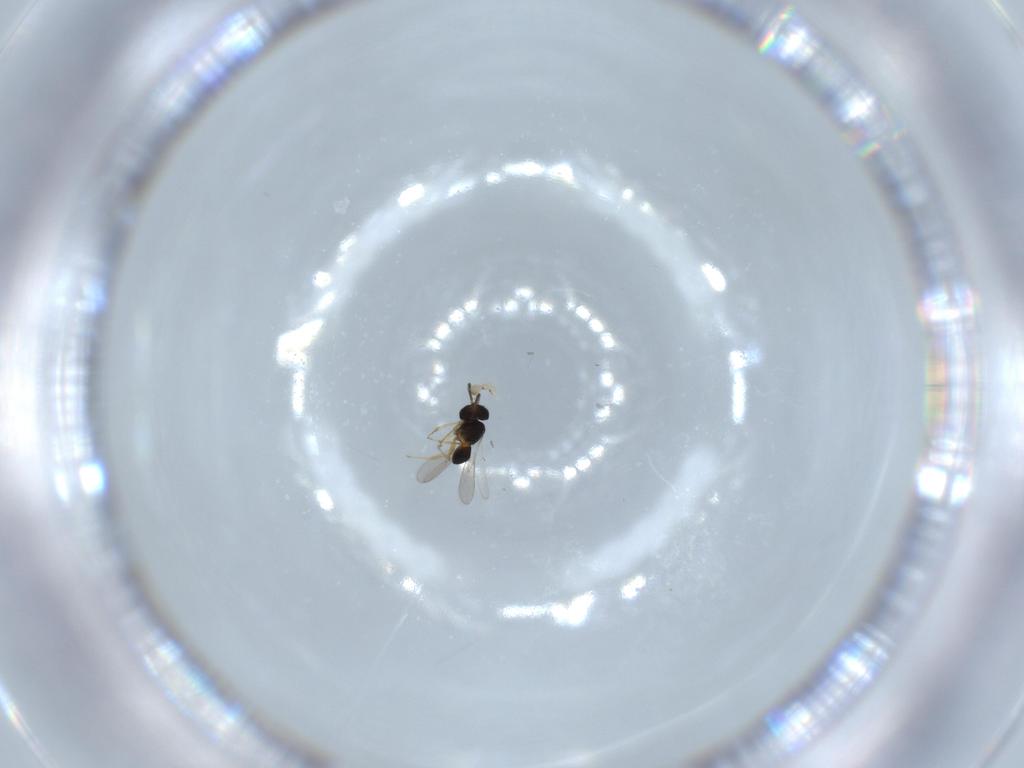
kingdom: Animalia
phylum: Arthropoda
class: Insecta
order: Hymenoptera
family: Scelionidae
